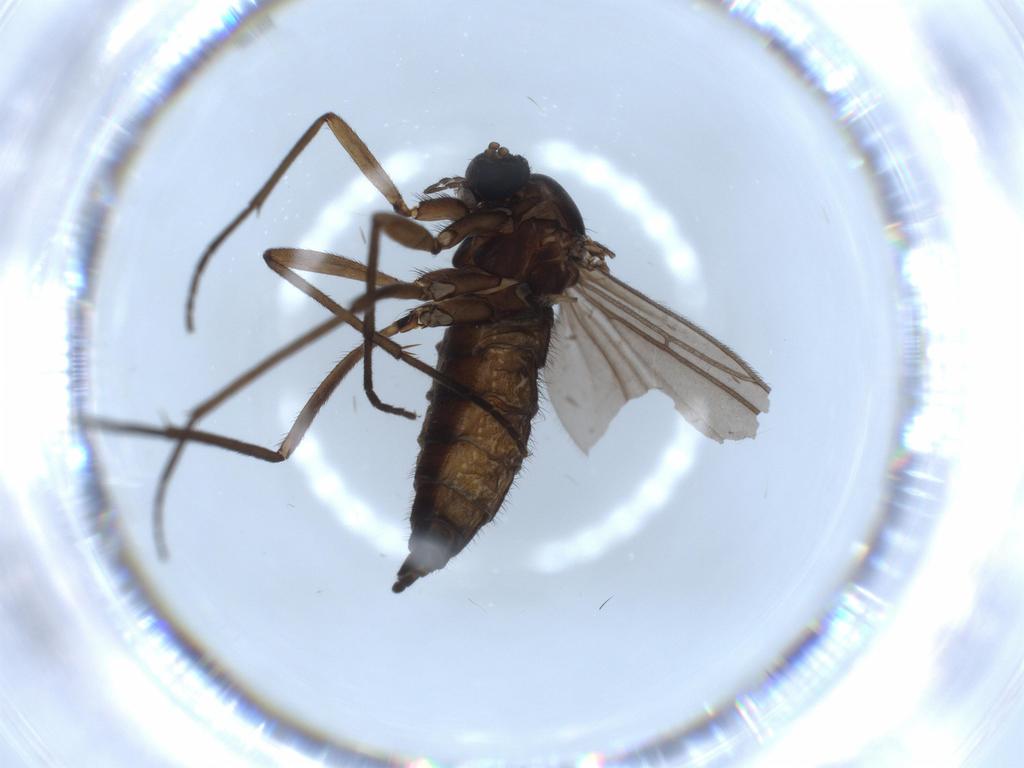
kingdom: Animalia
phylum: Arthropoda
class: Insecta
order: Diptera
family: Sciaridae
